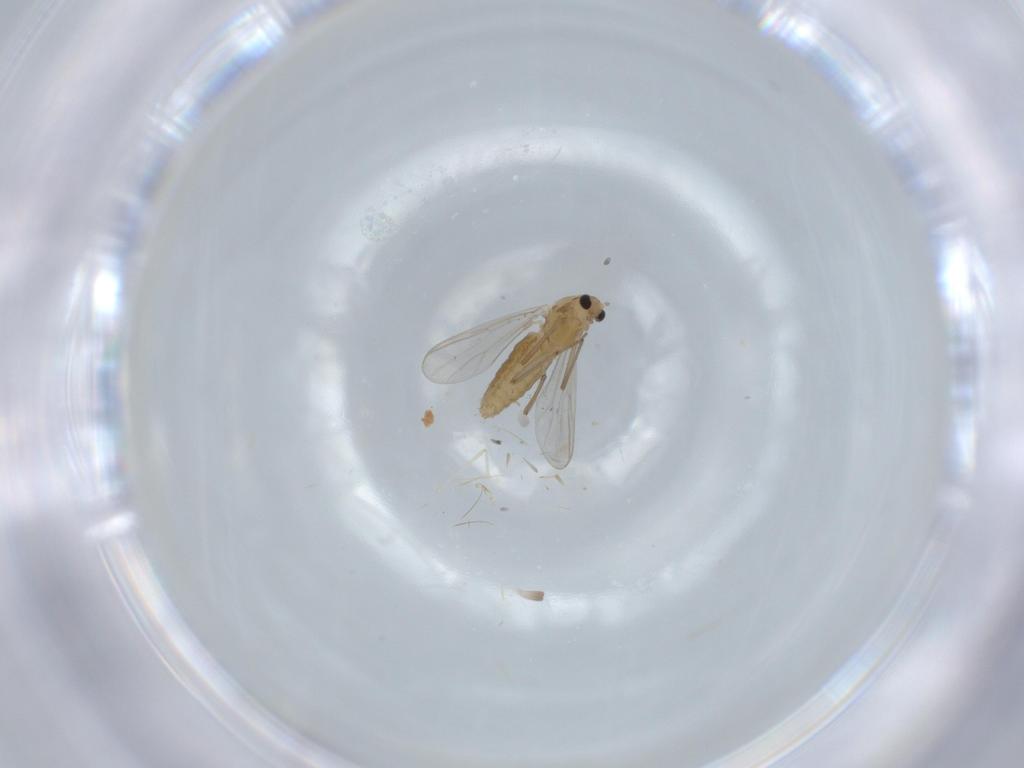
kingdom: Animalia
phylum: Arthropoda
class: Insecta
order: Diptera
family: Chironomidae
